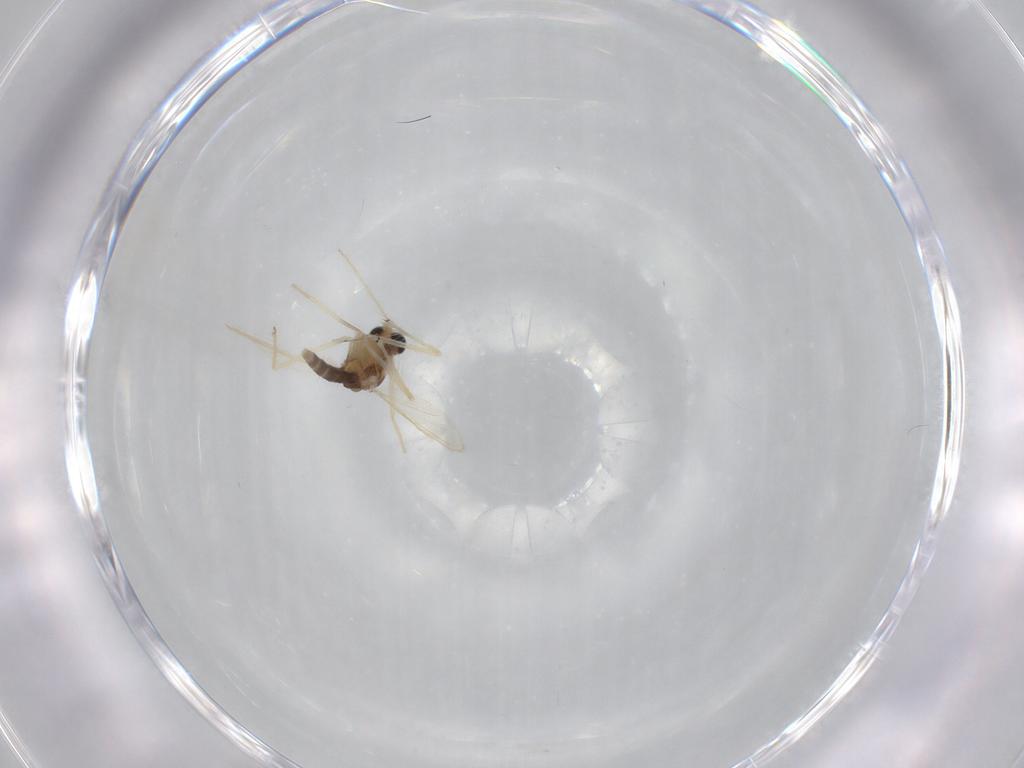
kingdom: Animalia
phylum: Arthropoda
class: Insecta
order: Diptera
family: Chironomidae
